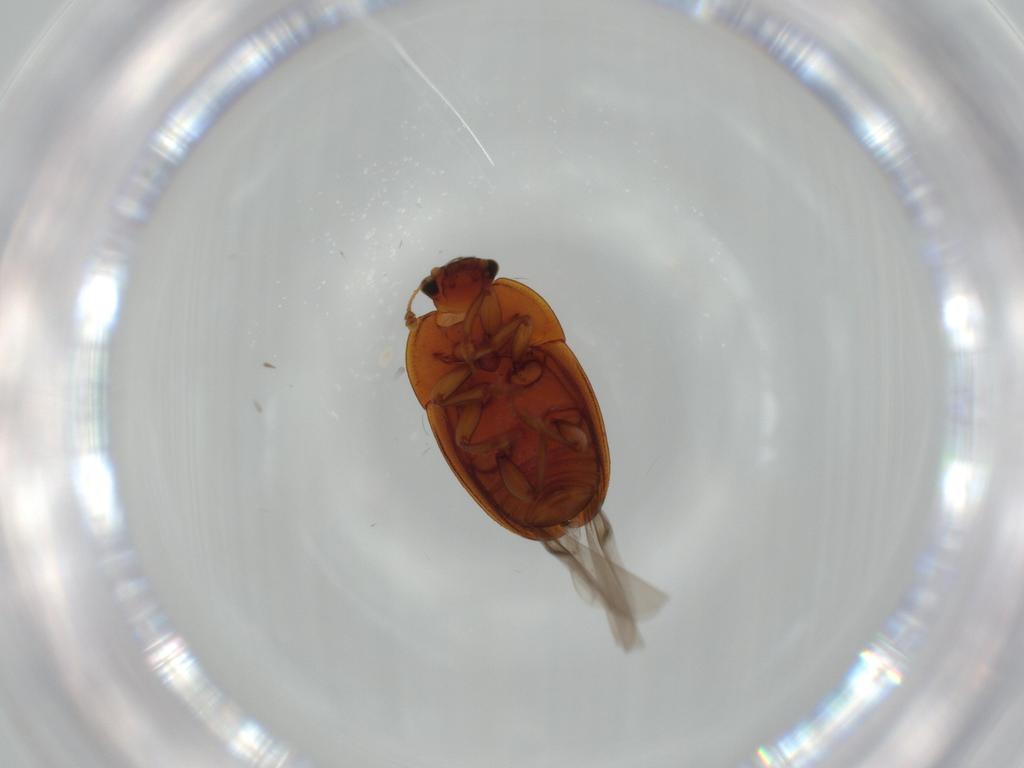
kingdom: Animalia
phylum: Arthropoda
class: Insecta
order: Coleoptera
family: Nitidulidae
